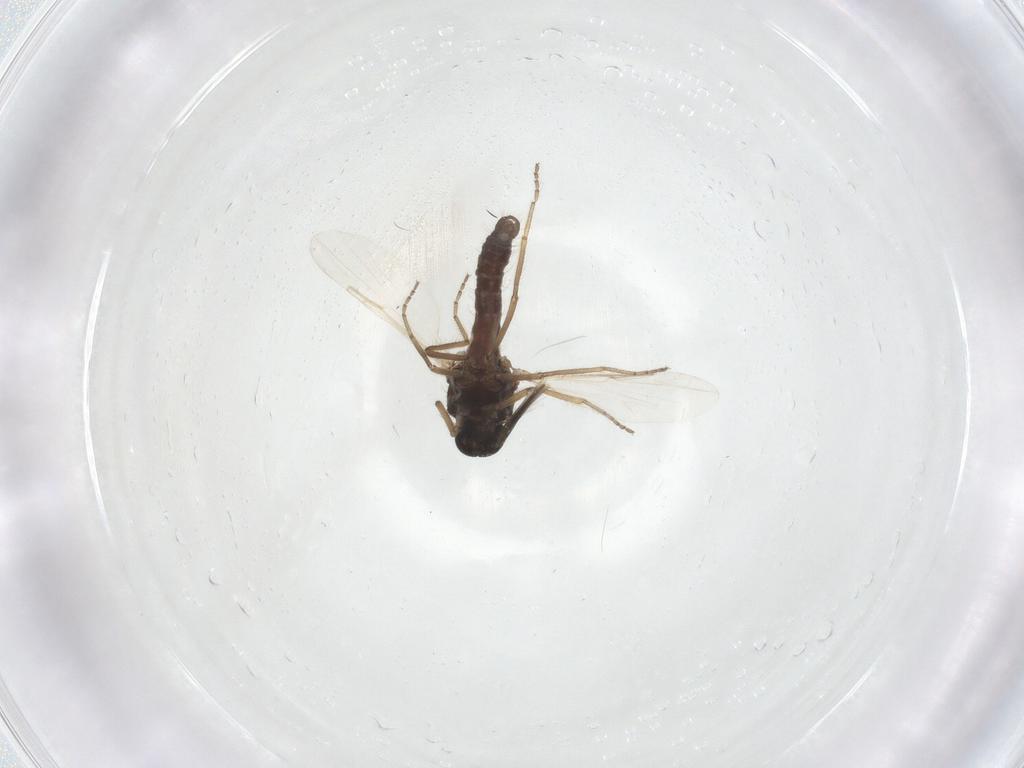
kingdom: Animalia
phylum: Arthropoda
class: Insecta
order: Diptera
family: Ceratopogonidae
